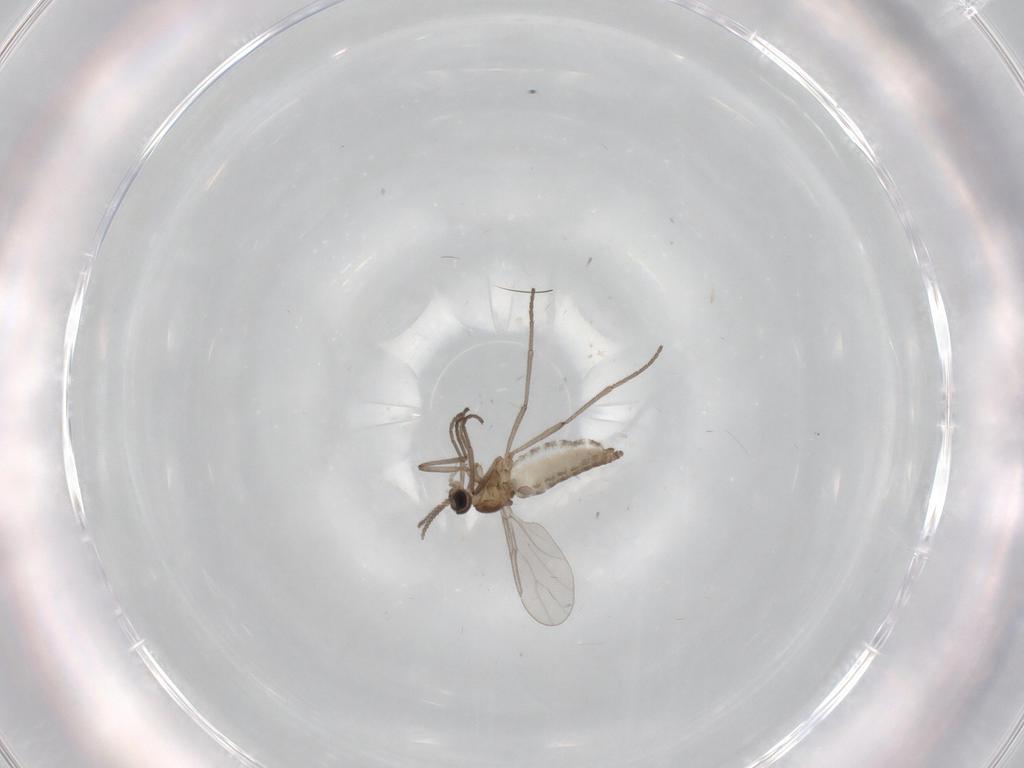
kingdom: Animalia
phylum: Arthropoda
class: Insecta
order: Diptera
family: Cecidomyiidae
